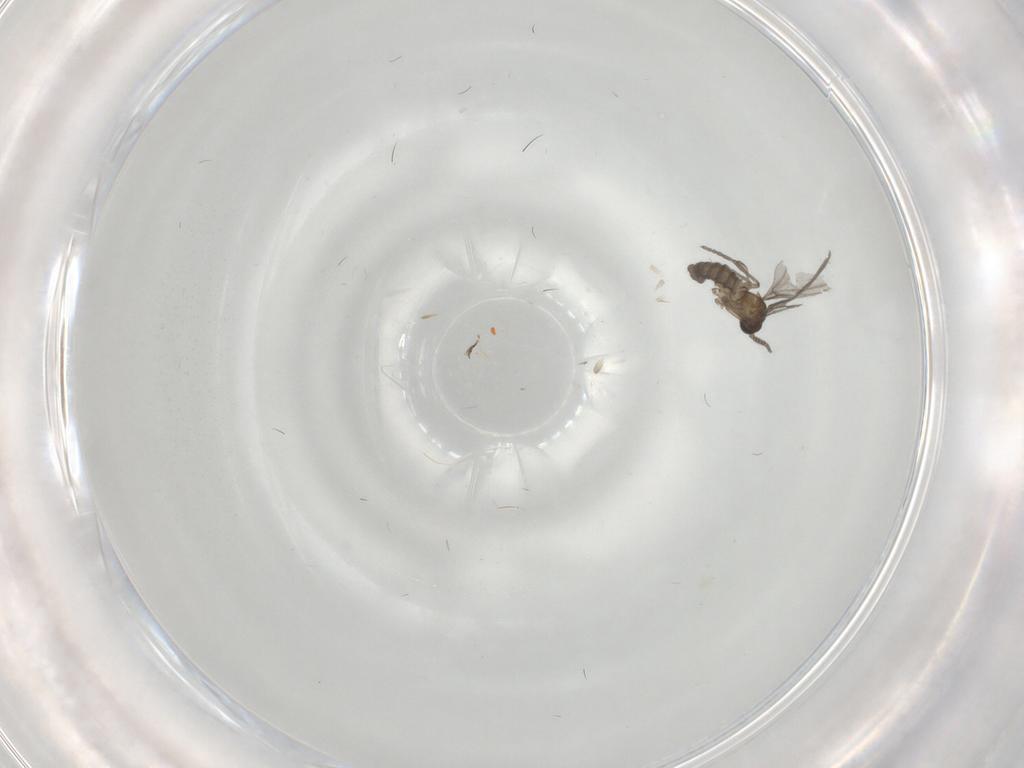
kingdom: Animalia
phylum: Arthropoda
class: Insecta
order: Diptera
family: Sciaridae
